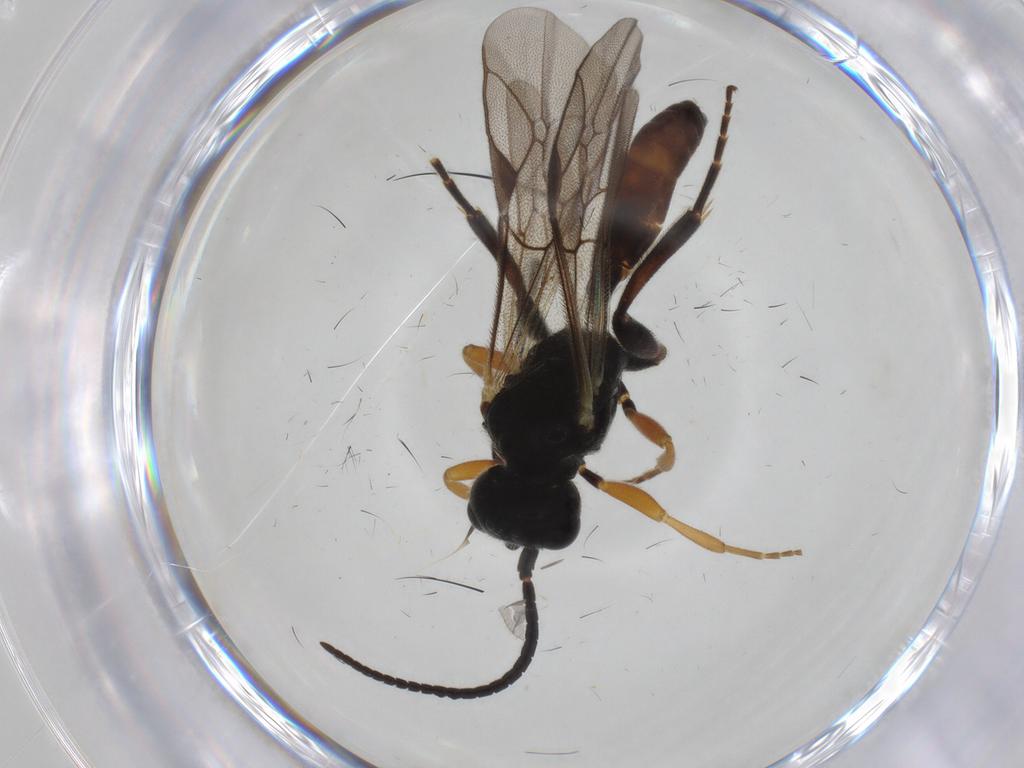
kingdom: Animalia
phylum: Arthropoda
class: Insecta
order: Hymenoptera
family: Ichneumonidae
